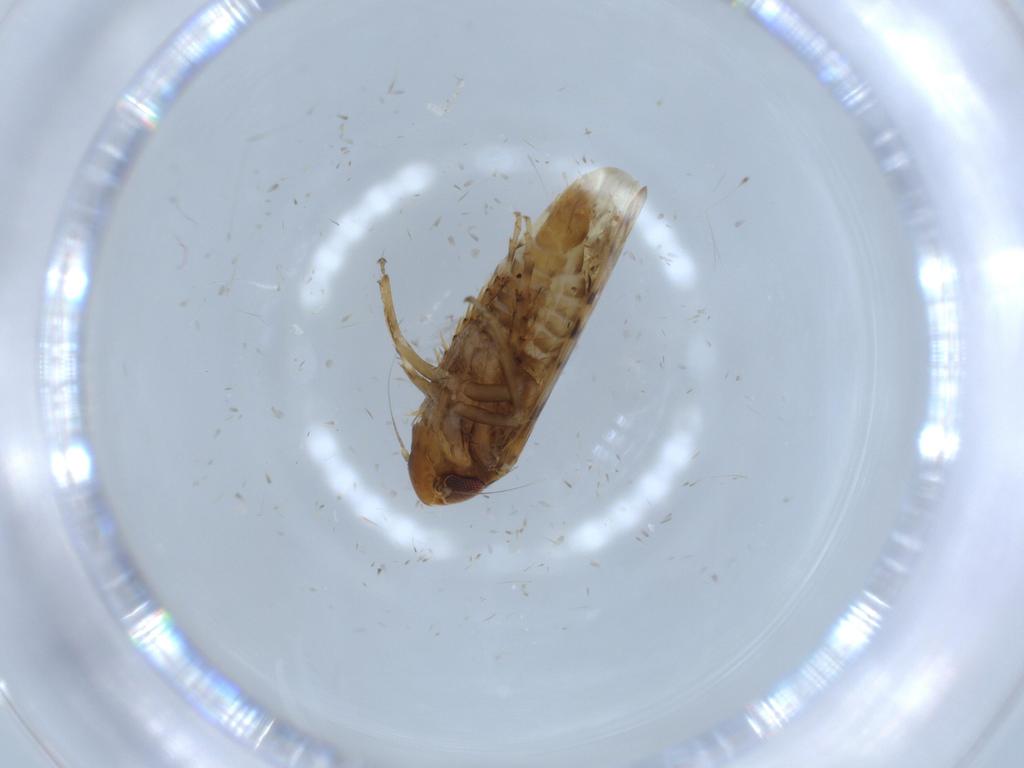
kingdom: Animalia
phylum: Arthropoda
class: Insecta
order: Hemiptera
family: Cicadellidae
